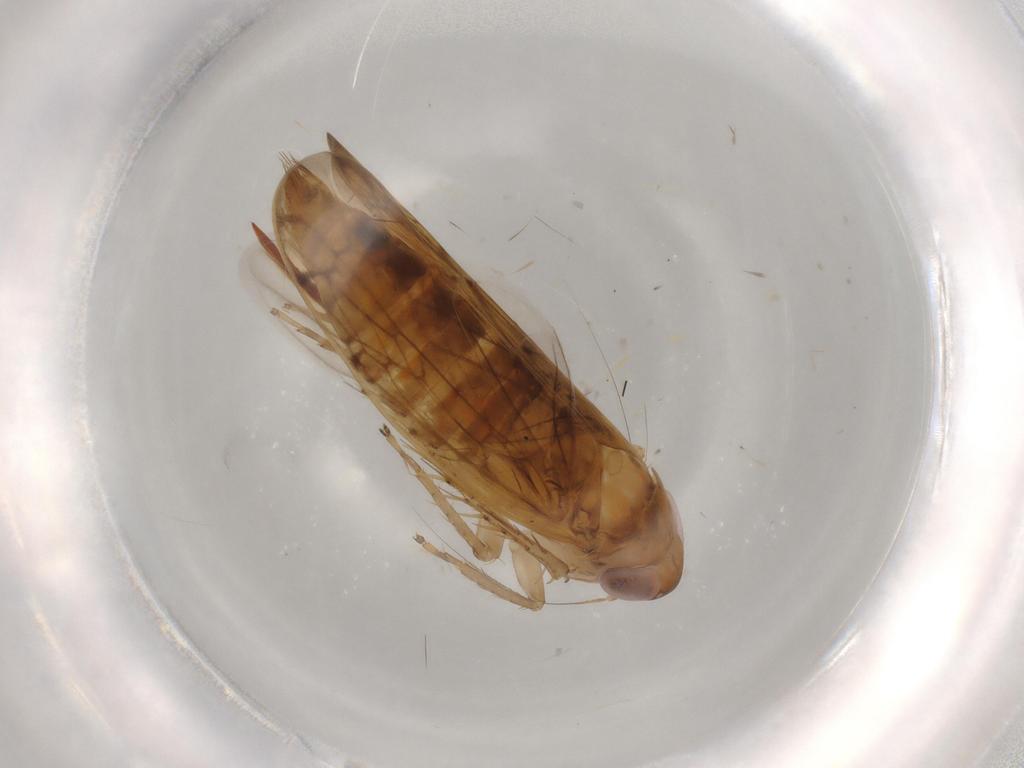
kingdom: Animalia
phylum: Arthropoda
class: Insecta
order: Hemiptera
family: Cicadellidae
